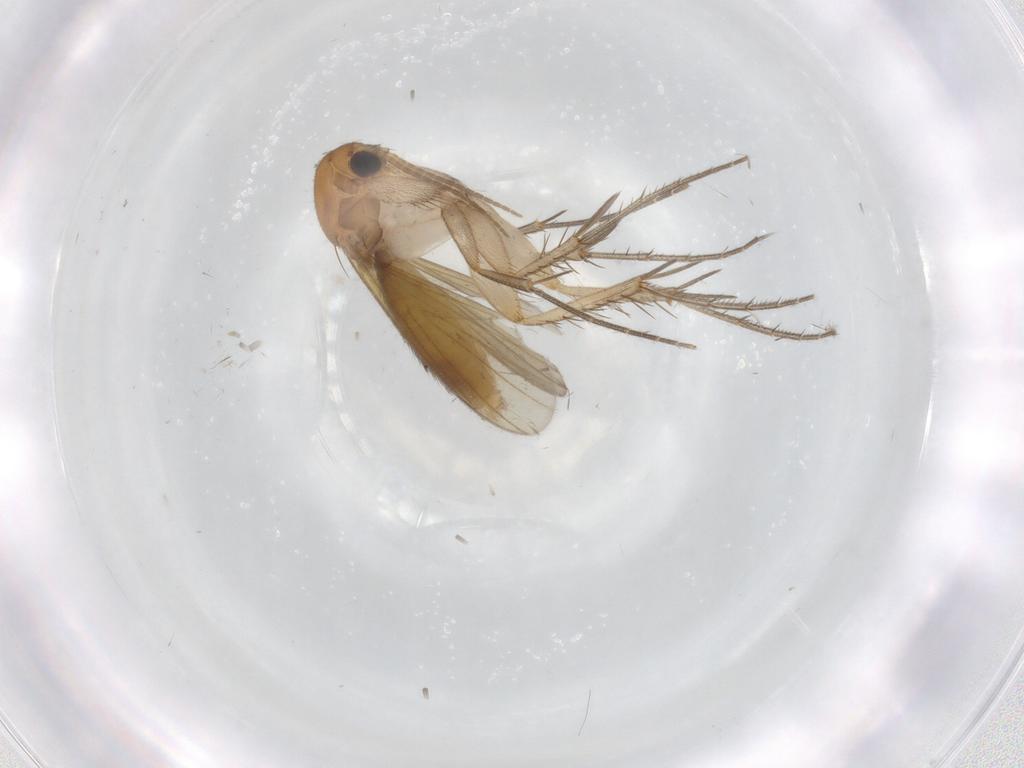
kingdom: Animalia
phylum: Arthropoda
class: Insecta
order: Diptera
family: Mycetophilidae
